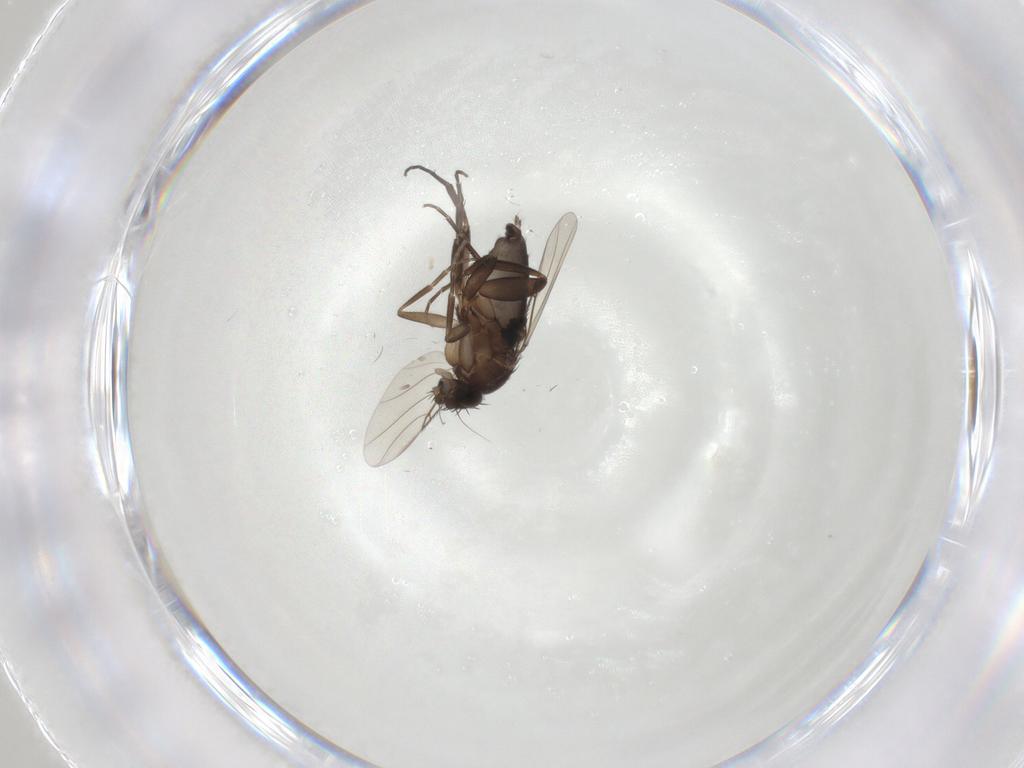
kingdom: Animalia
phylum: Arthropoda
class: Insecta
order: Diptera
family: Phoridae
